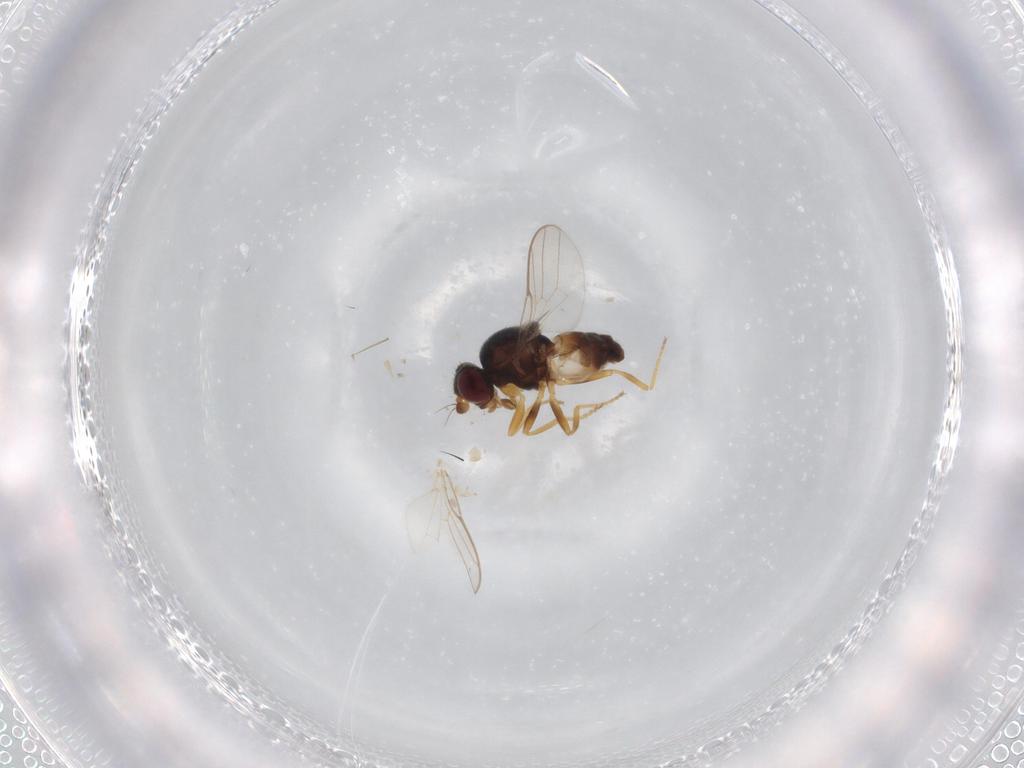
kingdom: Animalia
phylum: Arthropoda
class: Insecta
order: Diptera
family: Chloropidae
